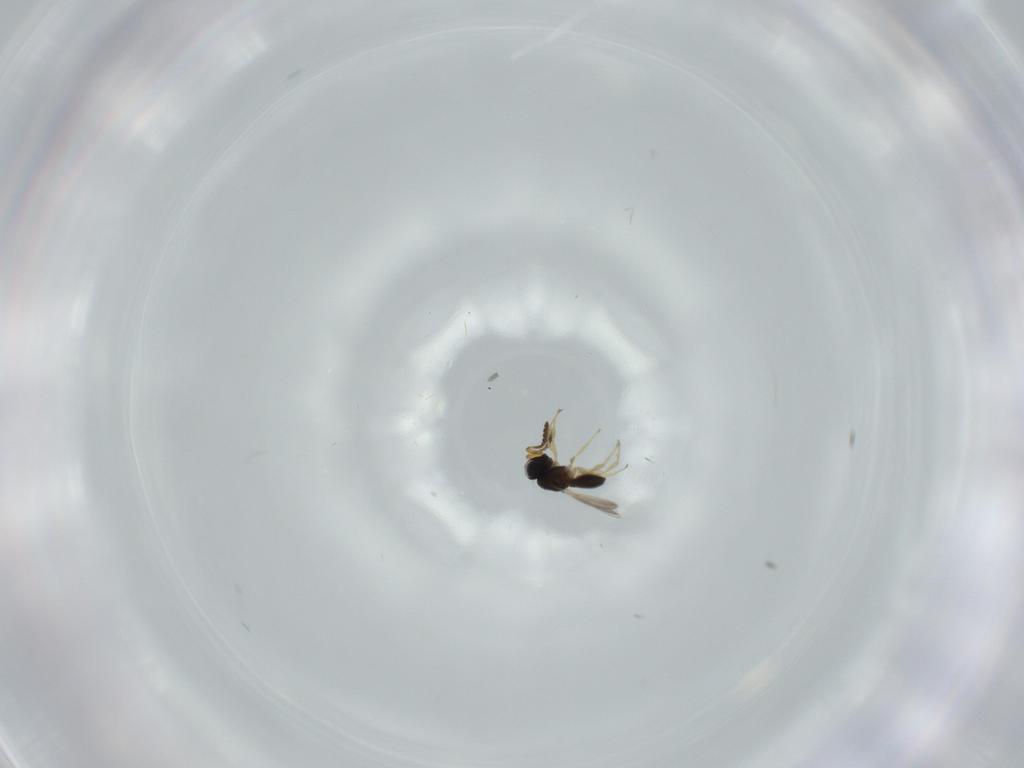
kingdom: Animalia
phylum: Arthropoda
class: Insecta
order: Hymenoptera
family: Scelionidae
